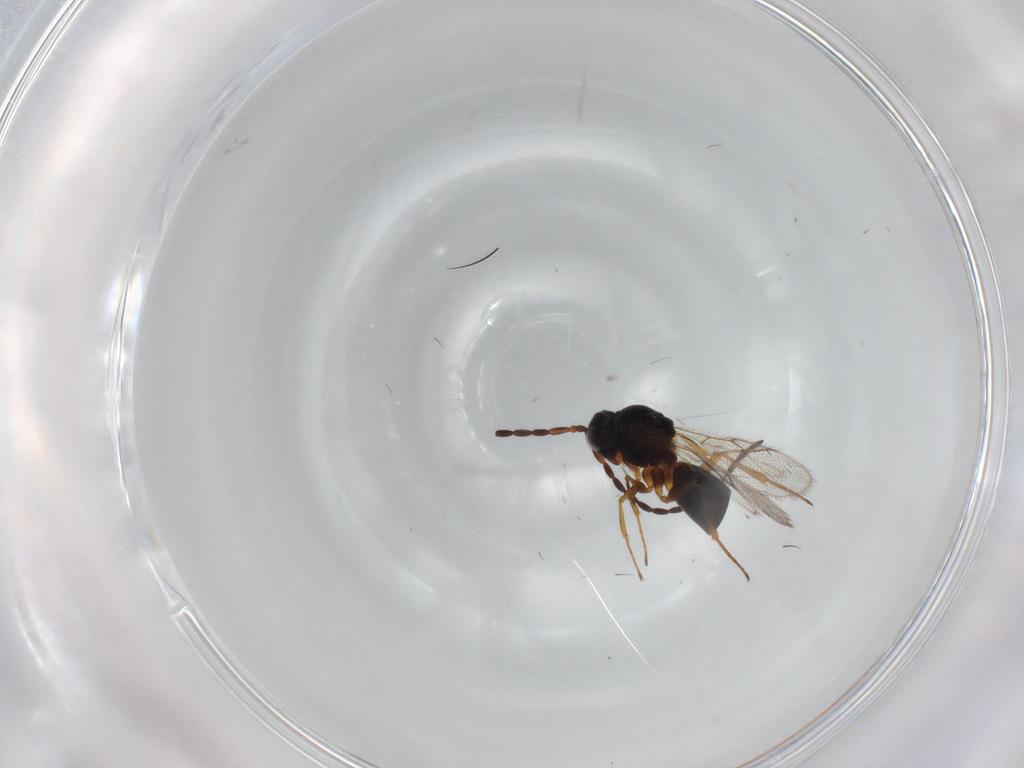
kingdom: Animalia
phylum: Arthropoda
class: Insecta
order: Hymenoptera
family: Figitidae
